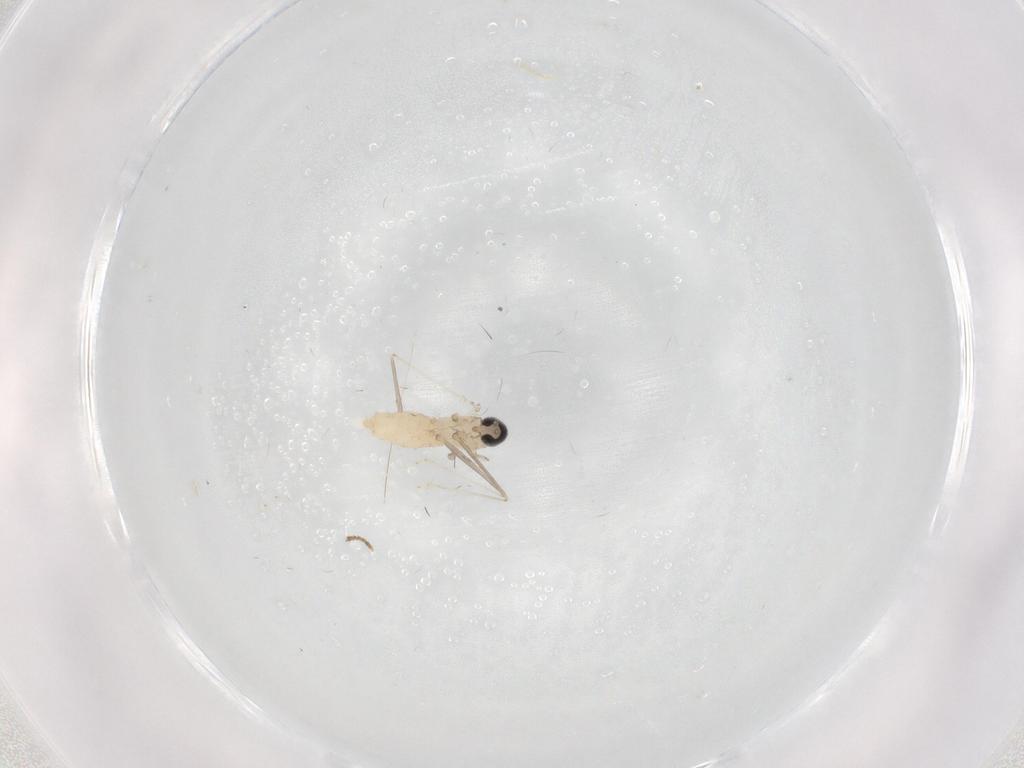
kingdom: Animalia
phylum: Arthropoda
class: Insecta
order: Diptera
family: Cecidomyiidae
